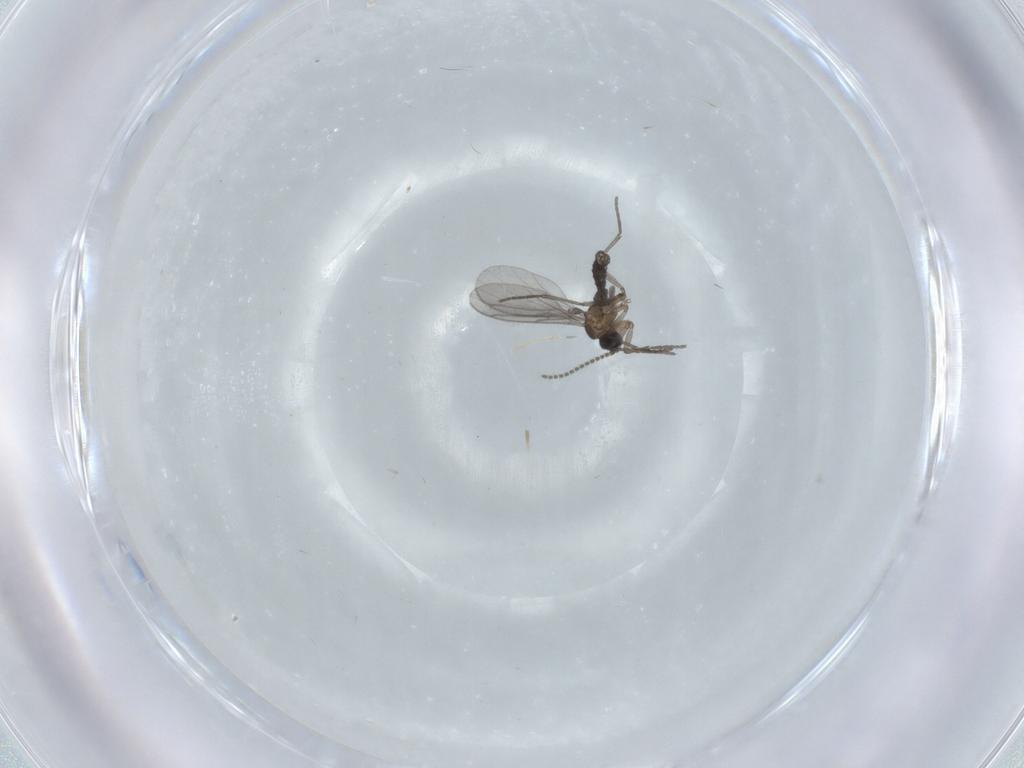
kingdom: Animalia
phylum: Arthropoda
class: Insecta
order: Diptera
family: Sciaridae
